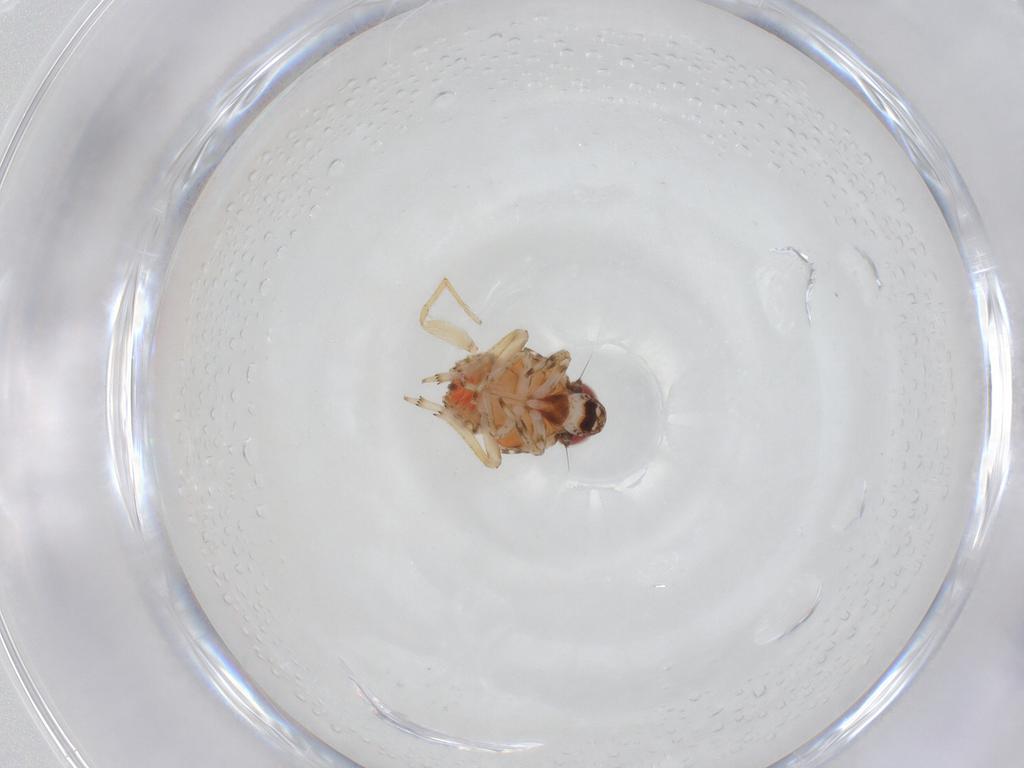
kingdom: Animalia
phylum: Arthropoda
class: Insecta
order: Hemiptera
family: Issidae
